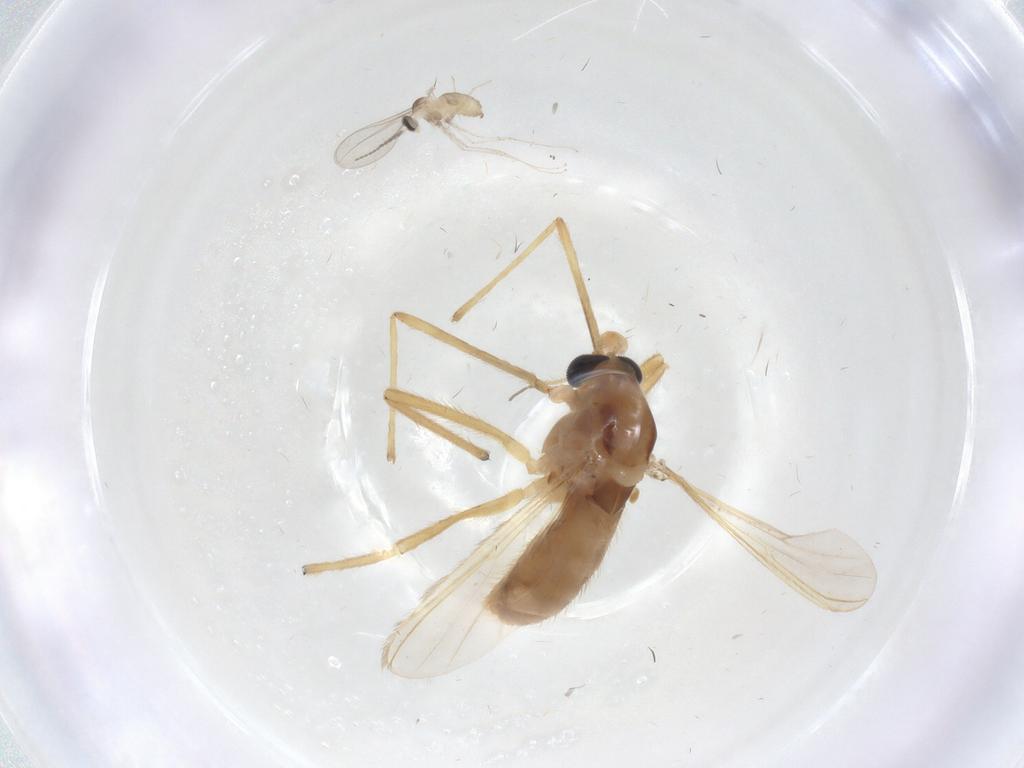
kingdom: Animalia
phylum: Arthropoda
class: Insecta
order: Diptera
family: Chironomidae
